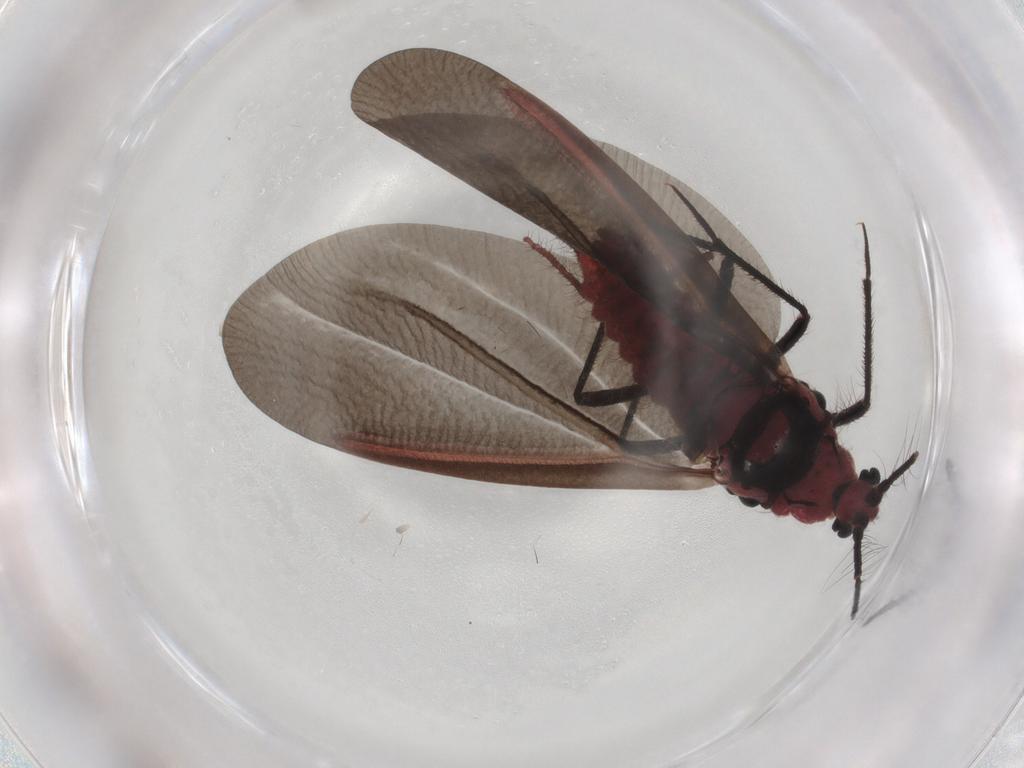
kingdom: Animalia
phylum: Arthropoda
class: Insecta
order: Hemiptera
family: Monophlebidae
